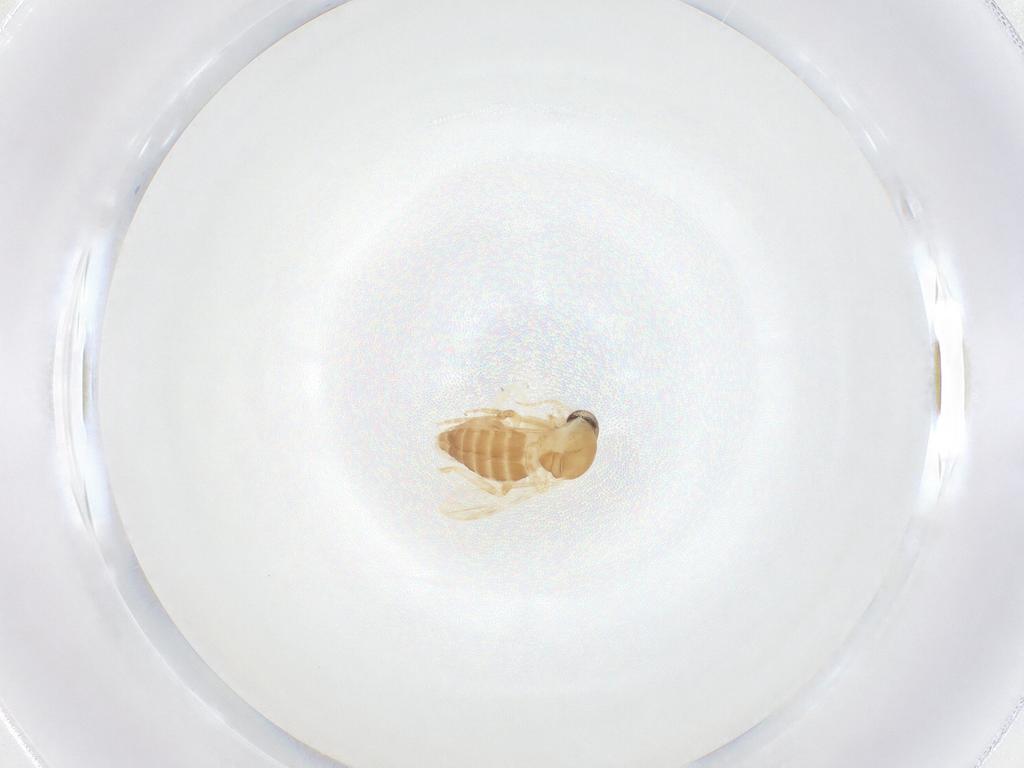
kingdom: Animalia
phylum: Arthropoda
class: Insecta
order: Diptera
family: Ceratopogonidae
